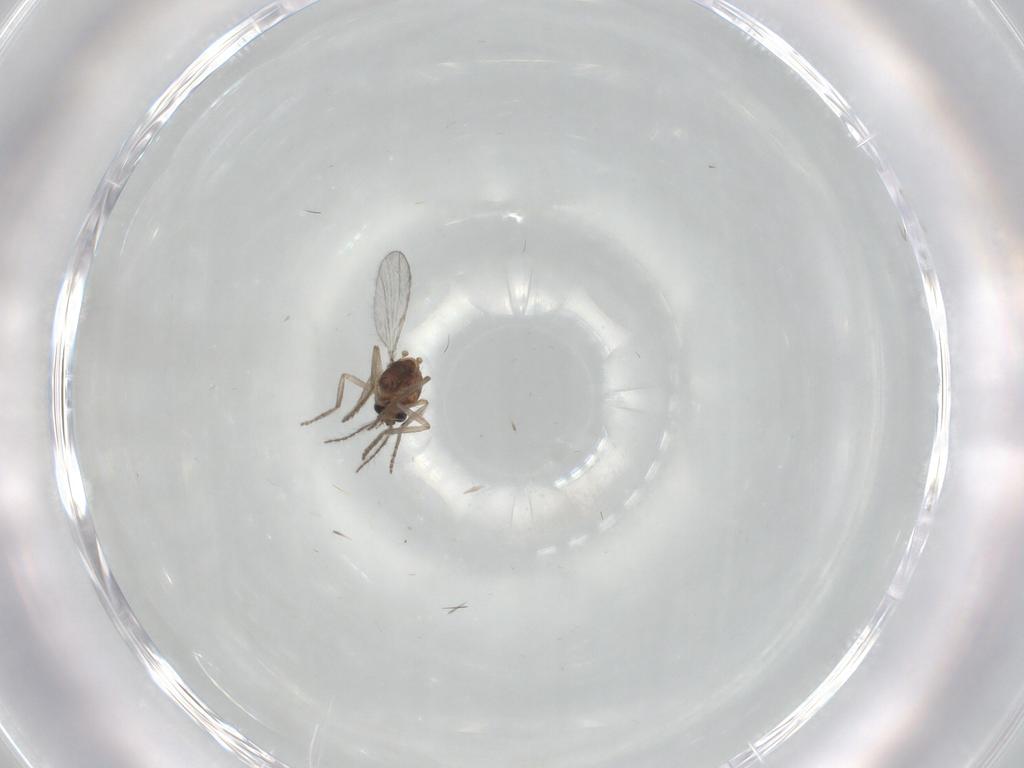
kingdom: Animalia
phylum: Arthropoda
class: Insecta
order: Diptera
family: Ceratopogonidae
